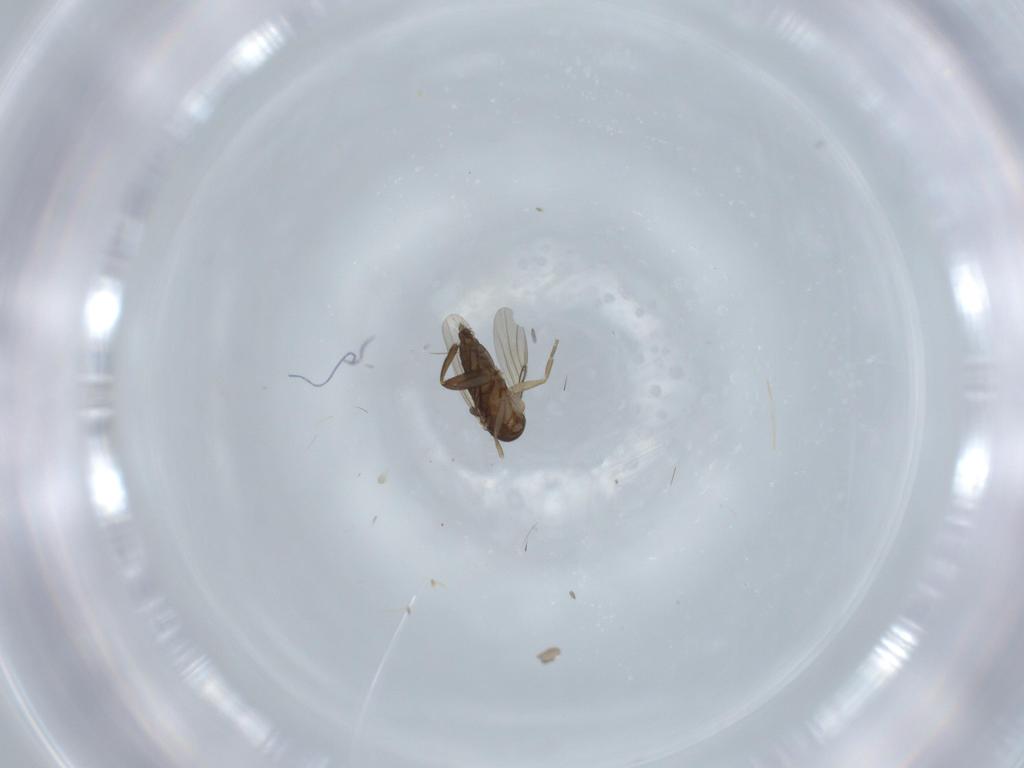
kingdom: Animalia
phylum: Arthropoda
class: Insecta
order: Diptera
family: Phoridae
